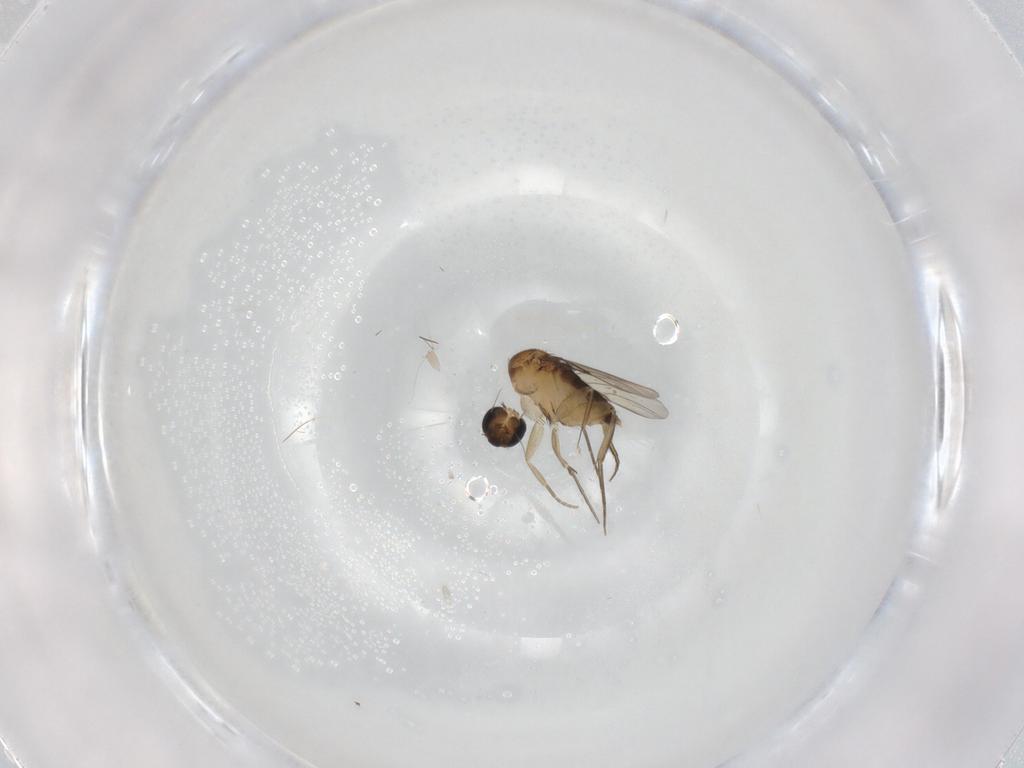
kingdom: Animalia
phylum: Arthropoda
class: Insecta
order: Diptera
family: Phoridae
